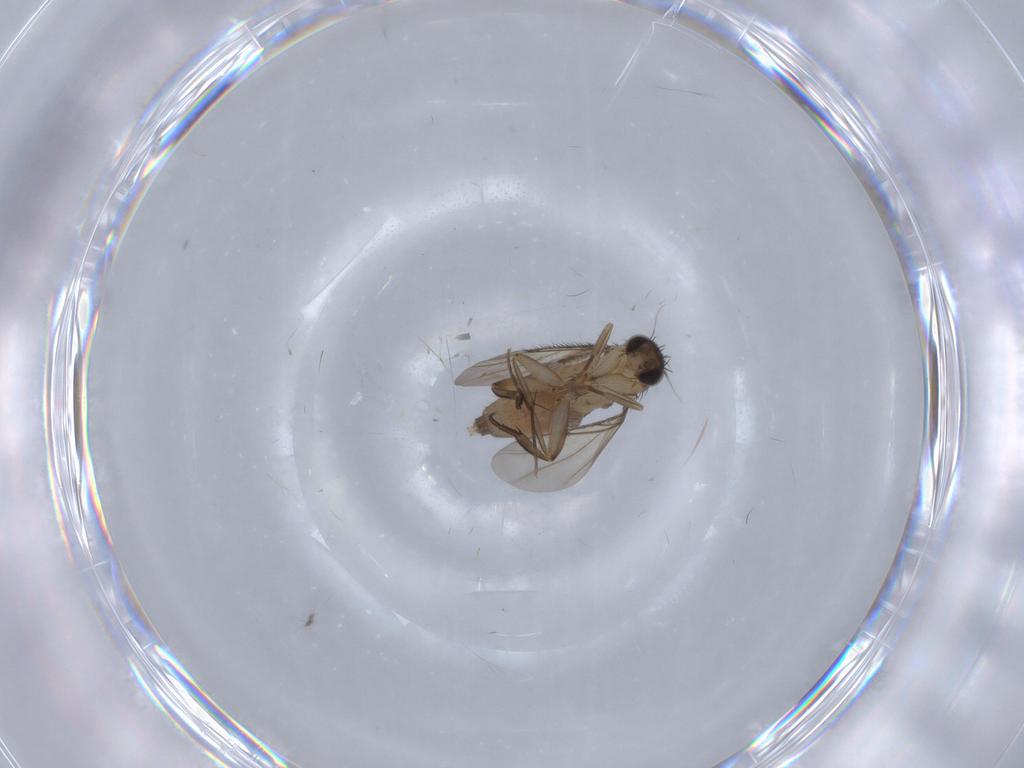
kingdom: Animalia
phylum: Arthropoda
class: Insecta
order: Diptera
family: Phoridae
